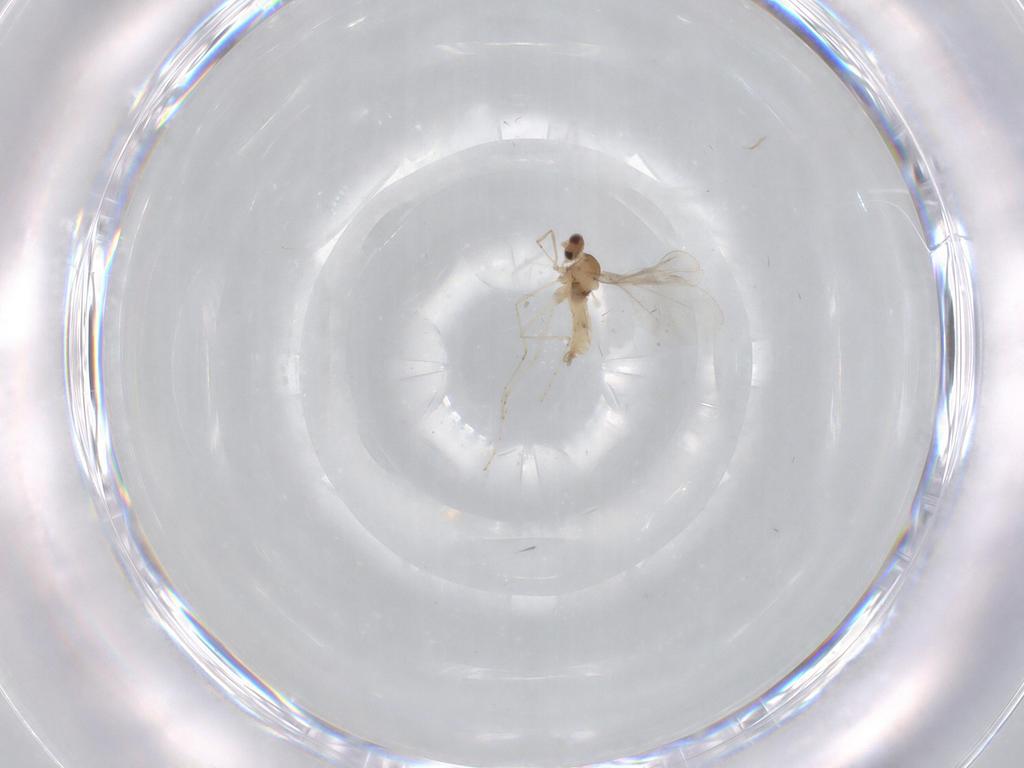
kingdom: Animalia
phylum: Arthropoda
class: Insecta
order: Diptera
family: Cecidomyiidae
